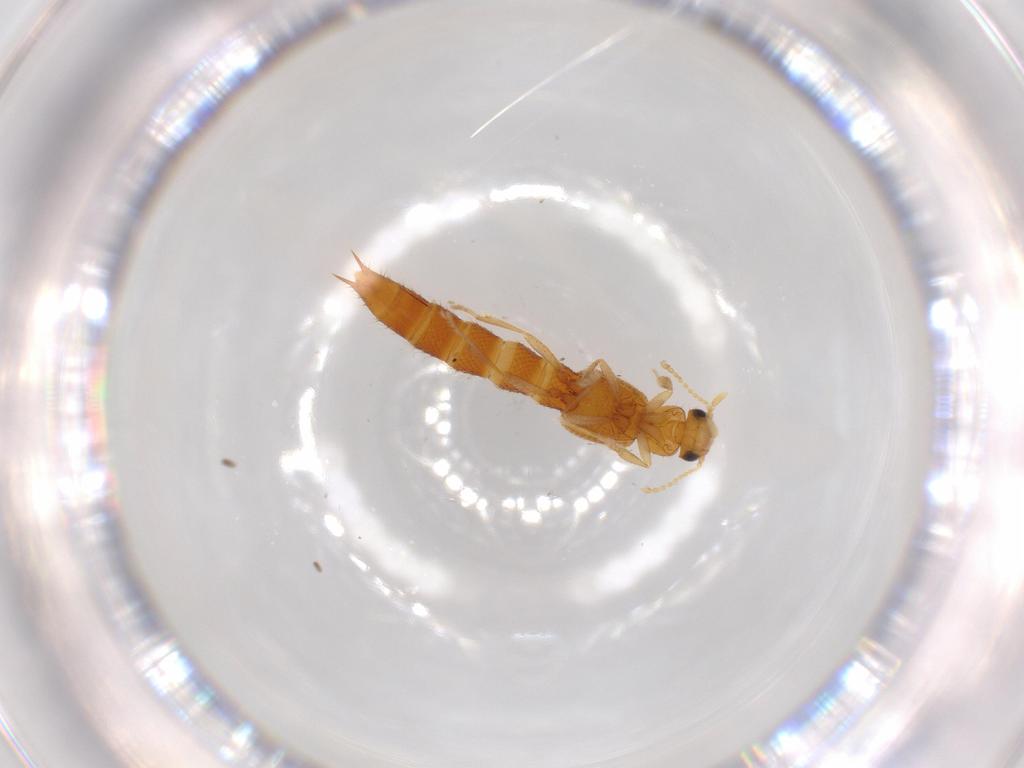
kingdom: Animalia
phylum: Arthropoda
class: Insecta
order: Coleoptera
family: Staphylinidae
